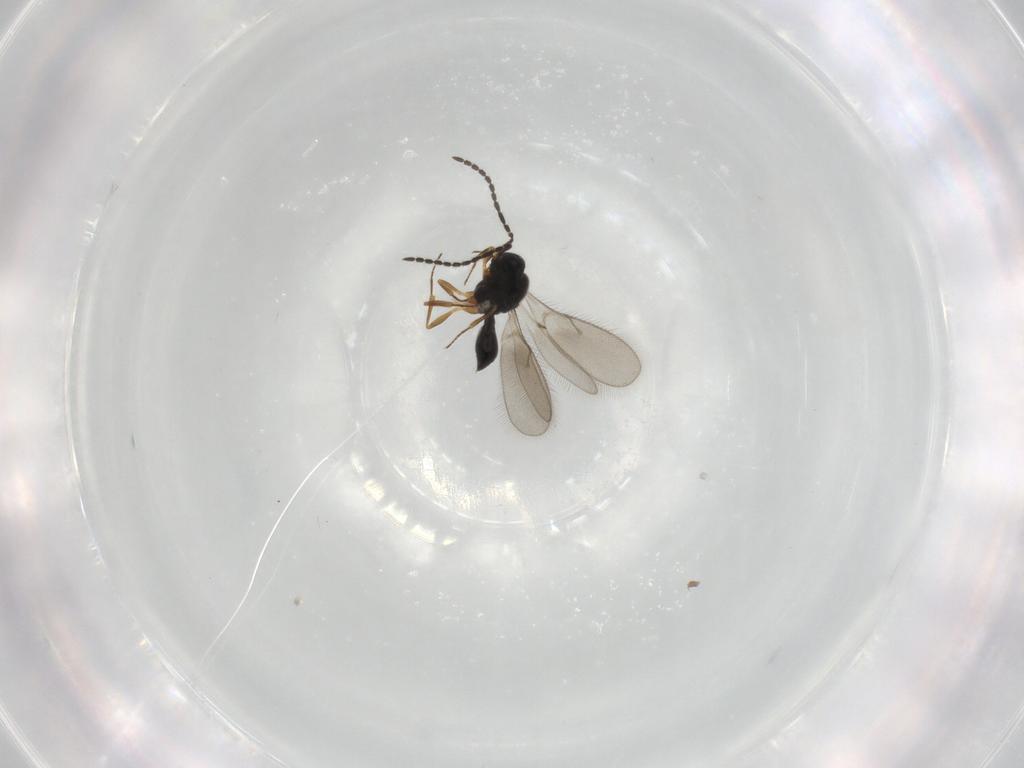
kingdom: Animalia
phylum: Arthropoda
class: Insecta
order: Hymenoptera
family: Scelionidae
